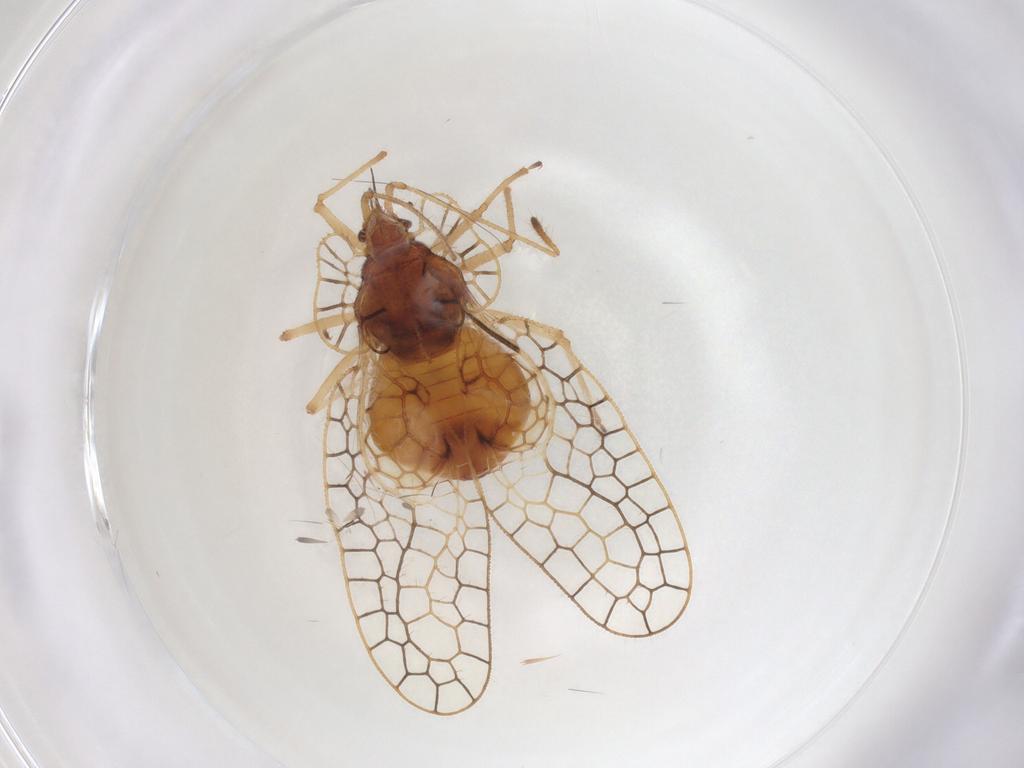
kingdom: Animalia
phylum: Arthropoda
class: Insecta
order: Hemiptera
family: Tingidae
